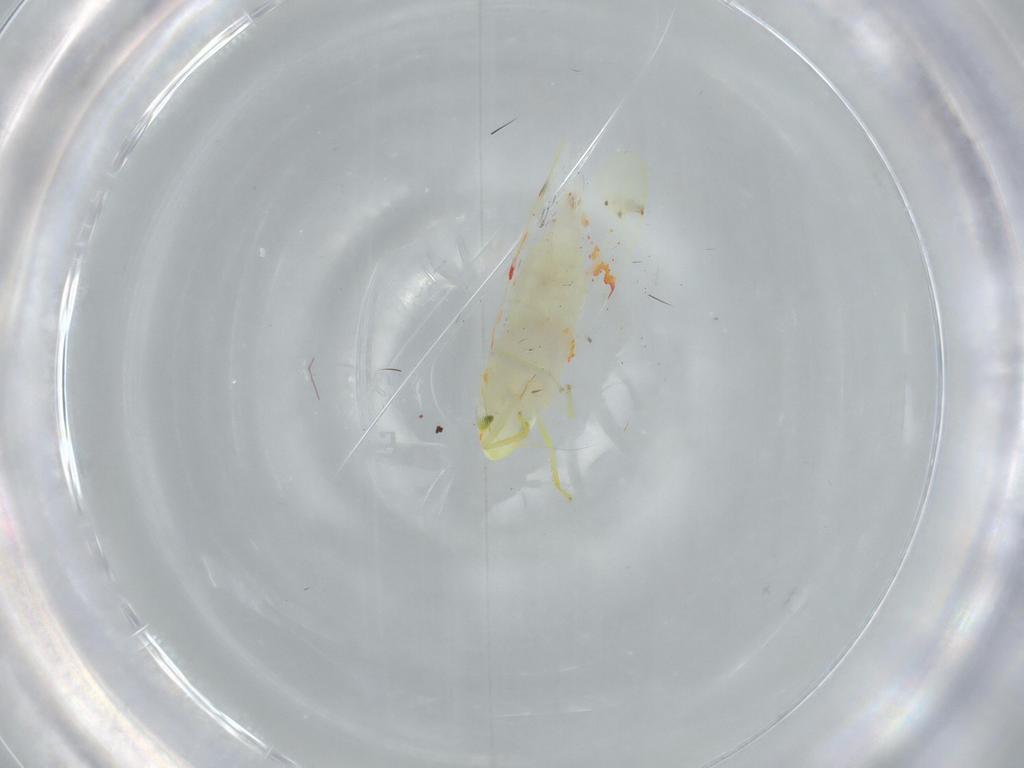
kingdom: Animalia
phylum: Arthropoda
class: Insecta
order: Hemiptera
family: Cicadellidae
